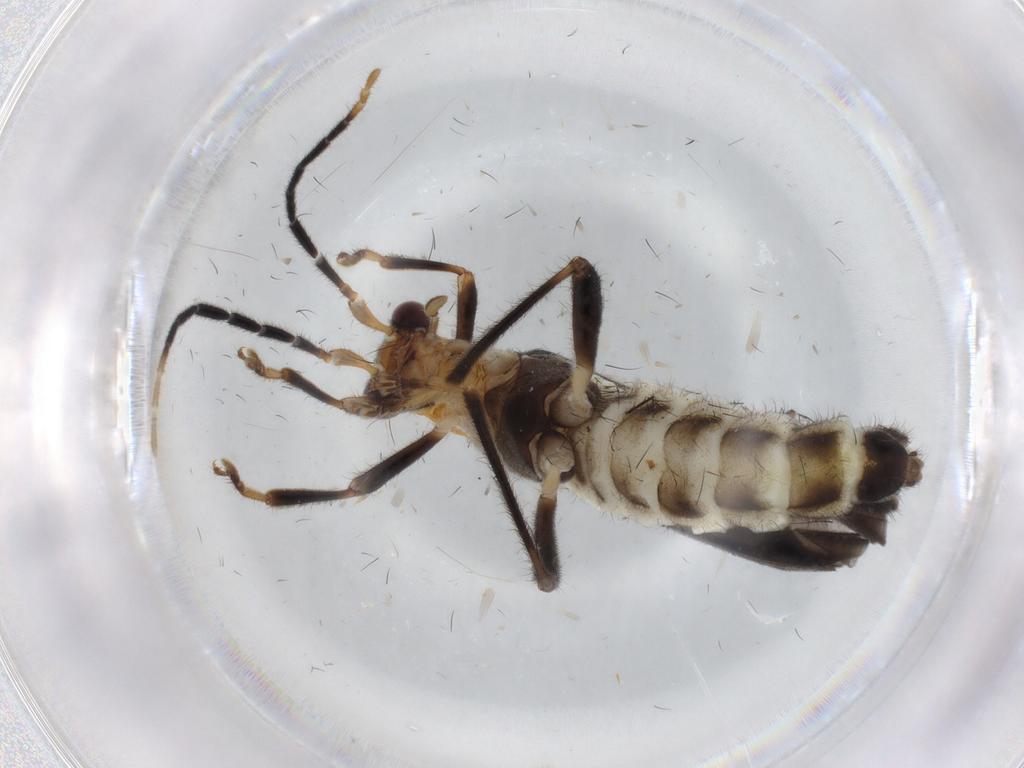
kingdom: Animalia
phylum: Arthropoda
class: Insecta
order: Coleoptera
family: Cantharidae
